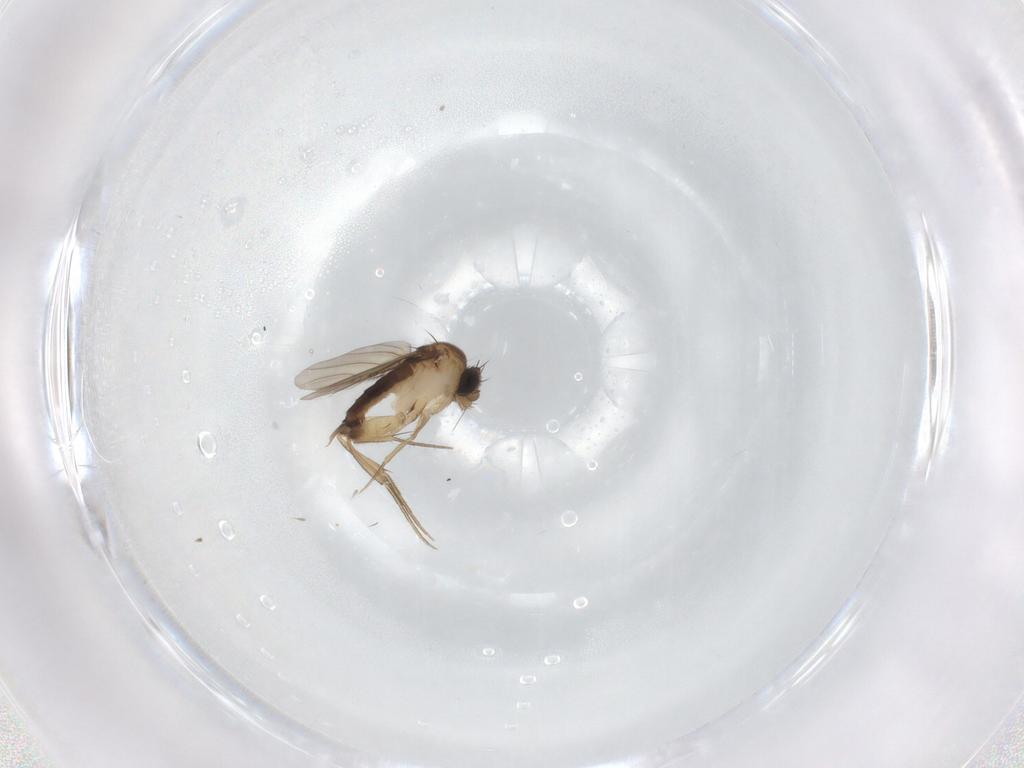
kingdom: Animalia
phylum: Arthropoda
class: Insecta
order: Diptera
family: Phoridae
